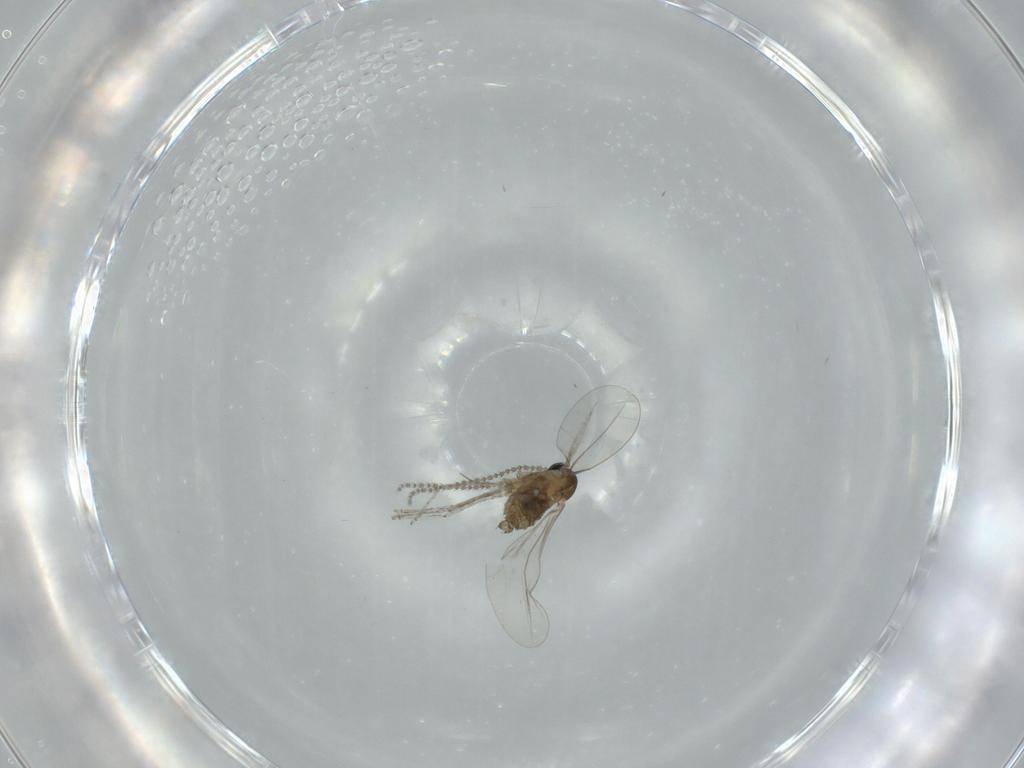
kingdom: Animalia
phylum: Arthropoda
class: Insecta
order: Diptera
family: Cecidomyiidae
